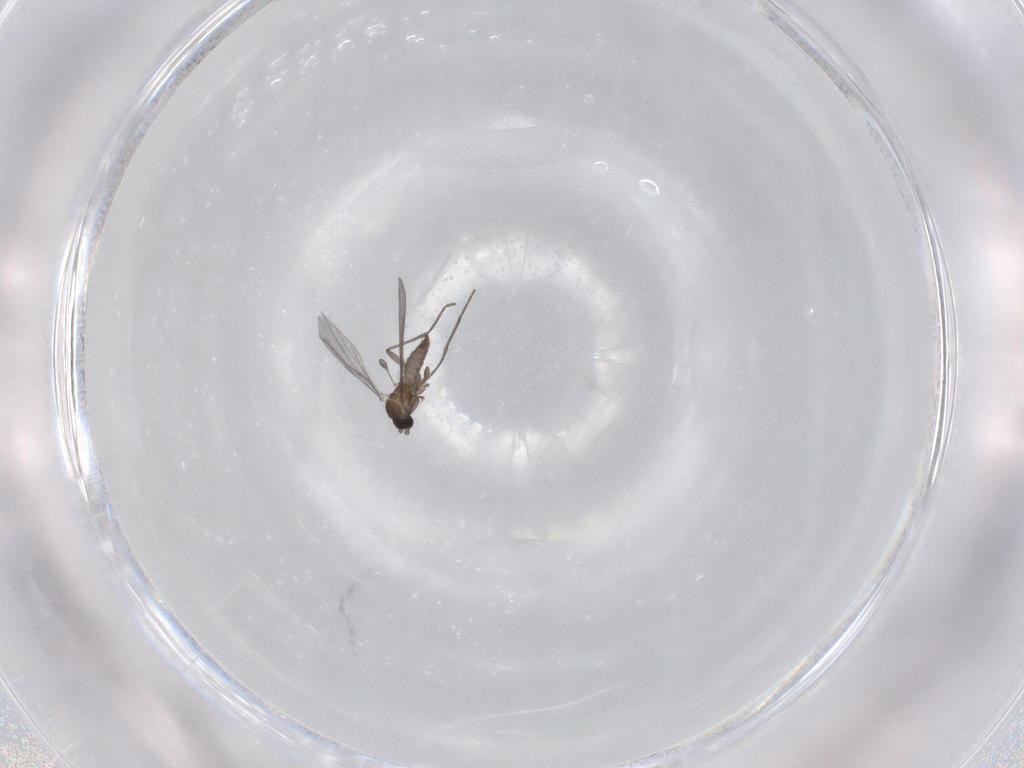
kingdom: Animalia
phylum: Arthropoda
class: Insecta
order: Diptera
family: Sciaridae
